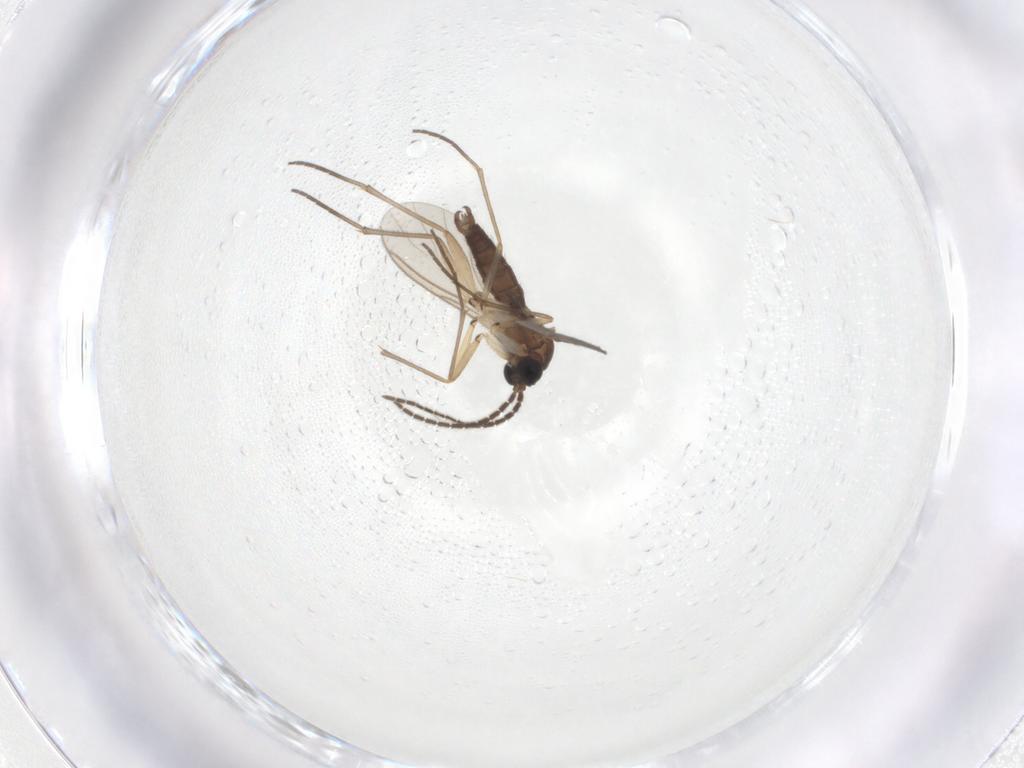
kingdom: Animalia
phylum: Arthropoda
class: Insecta
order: Diptera
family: Sciaridae
